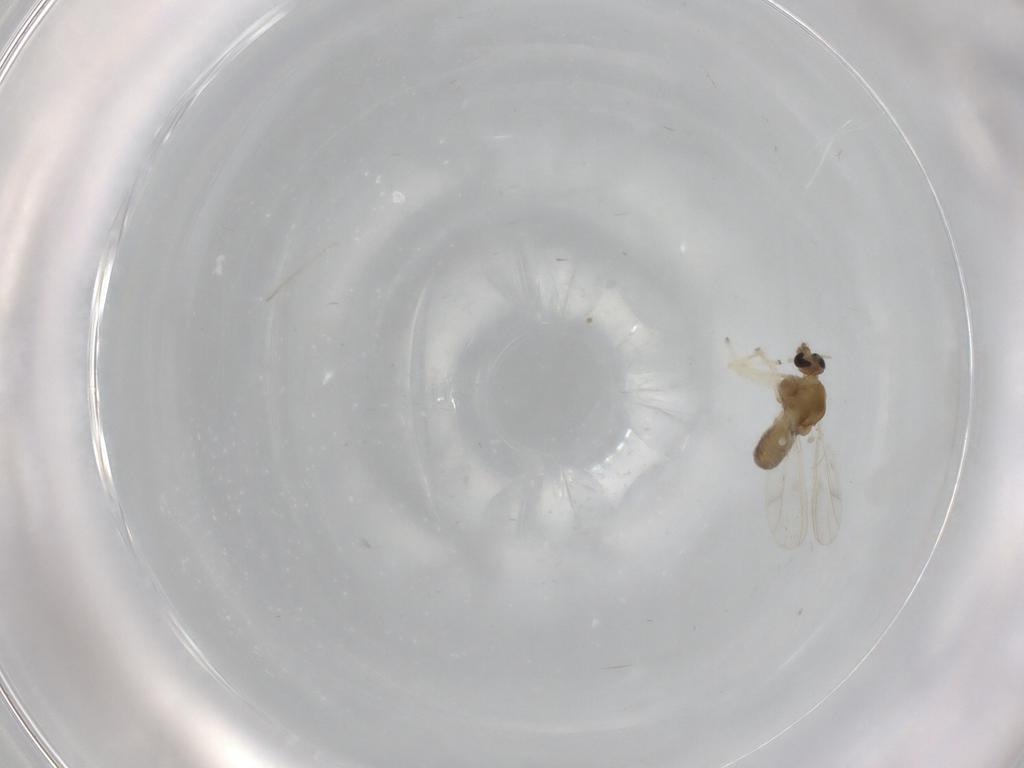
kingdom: Animalia
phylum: Arthropoda
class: Insecta
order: Diptera
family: Chironomidae
